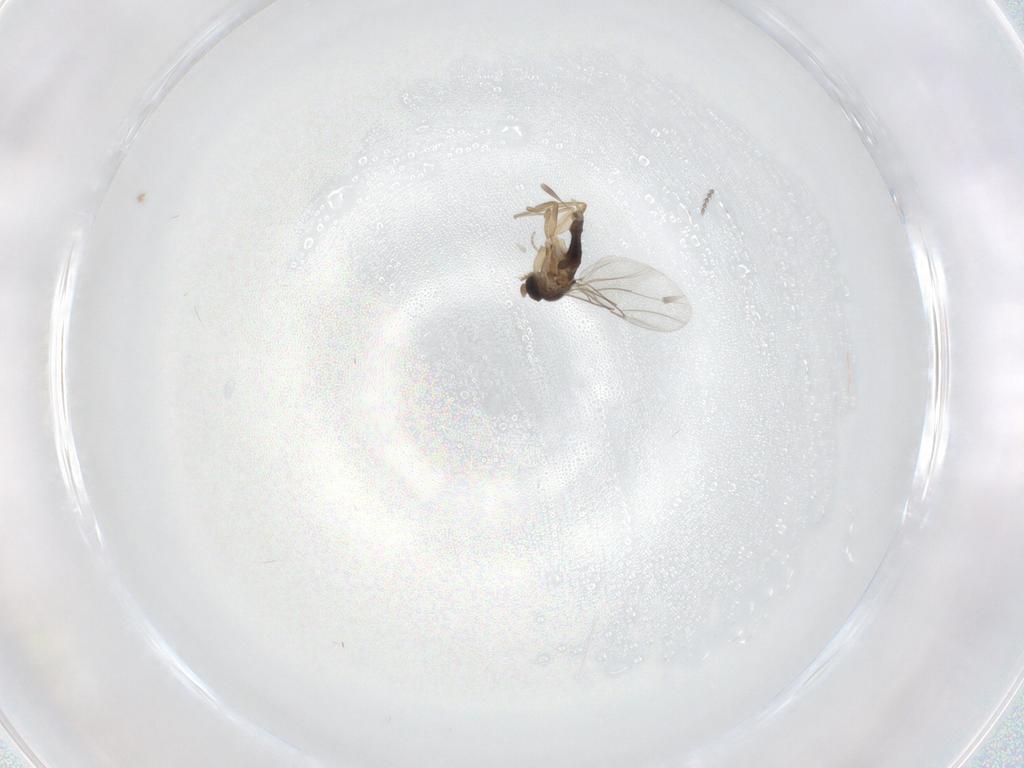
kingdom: Animalia
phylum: Arthropoda
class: Insecta
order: Diptera
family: Cecidomyiidae
